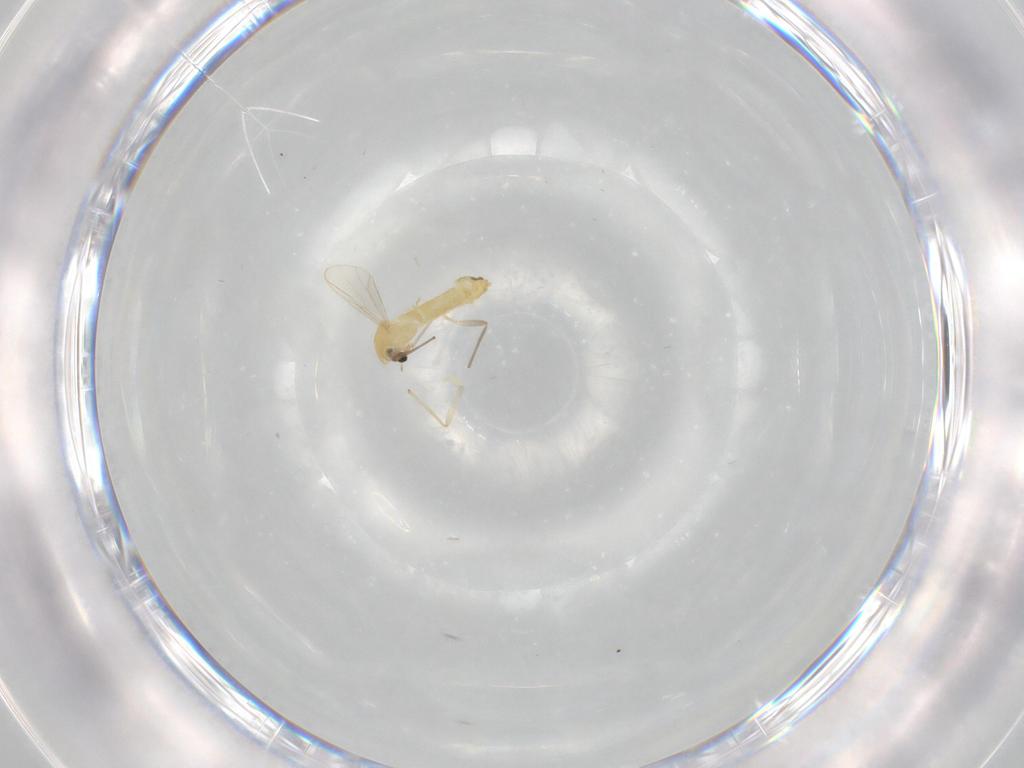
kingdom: Animalia
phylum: Arthropoda
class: Insecta
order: Diptera
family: Chironomidae
